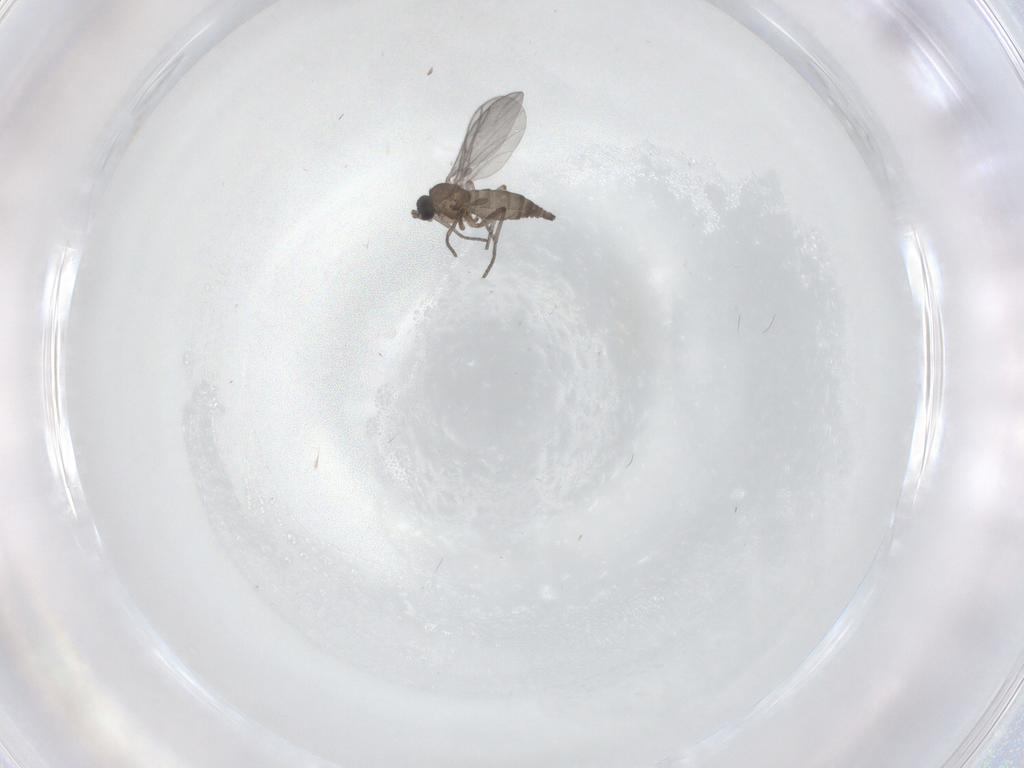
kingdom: Animalia
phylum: Arthropoda
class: Insecta
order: Diptera
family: Sciaridae
